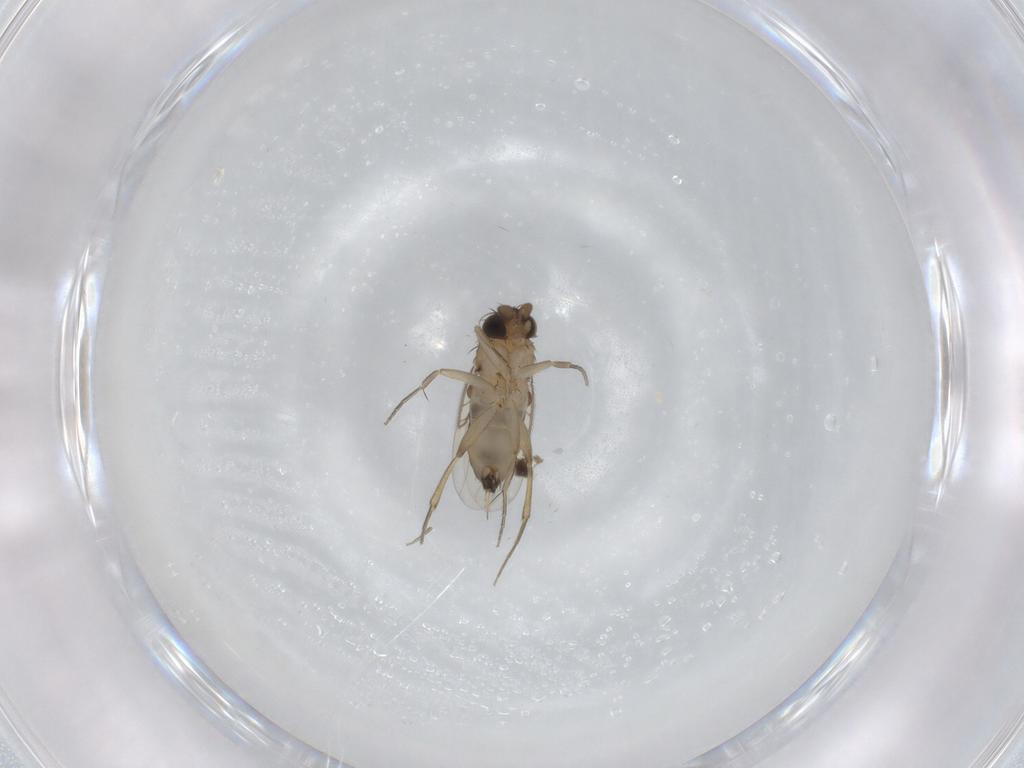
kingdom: Animalia
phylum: Arthropoda
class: Insecta
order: Diptera
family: Phoridae
